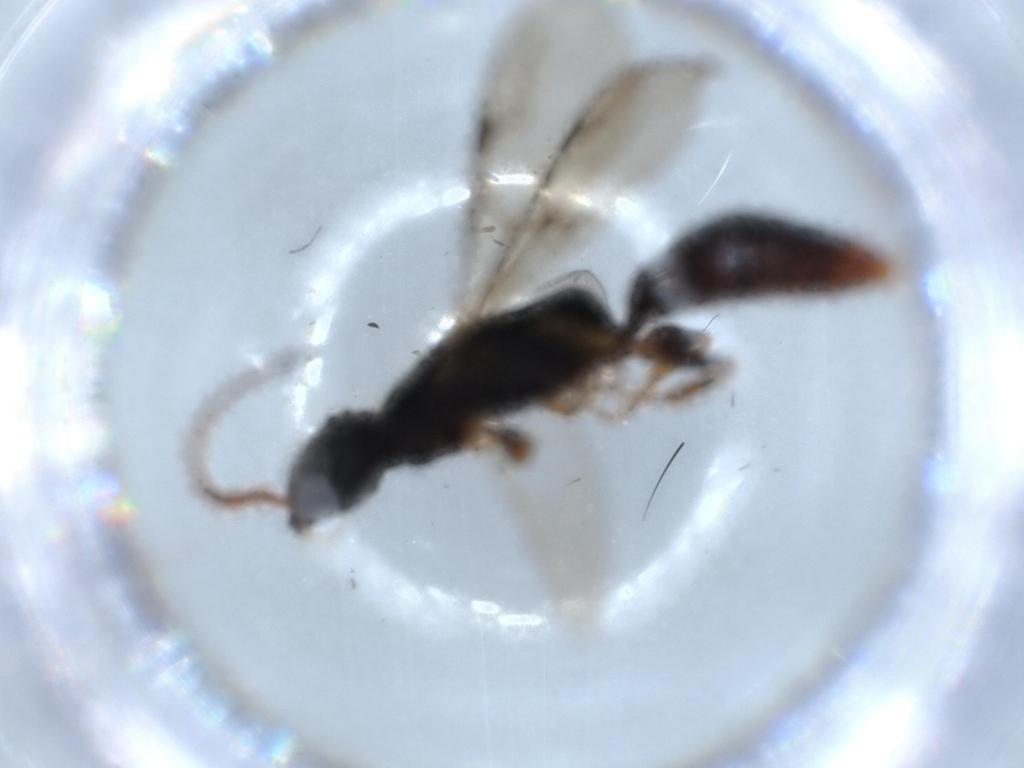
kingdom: Animalia
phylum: Arthropoda
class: Insecta
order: Hymenoptera
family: Bethylidae
